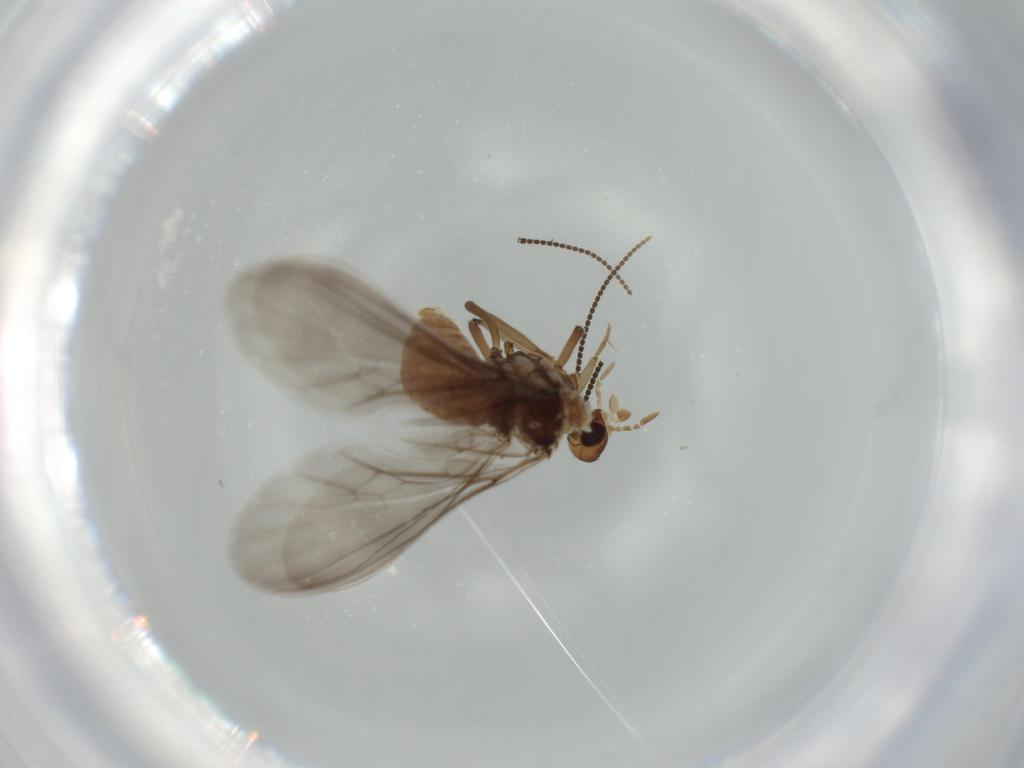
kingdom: Animalia
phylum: Arthropoda
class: Insecta
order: Neuroptera
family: Coniopterygidae
